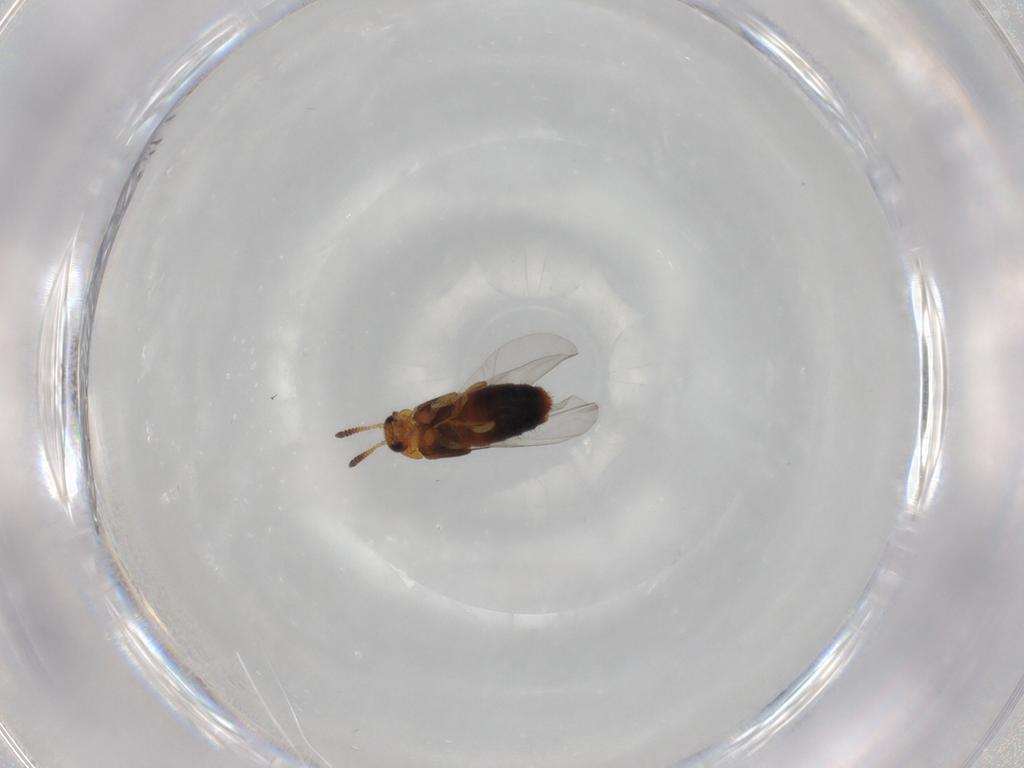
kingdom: Animalia
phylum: Arthropoda
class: Insecta
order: Coleoptera
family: Staphylinidae
